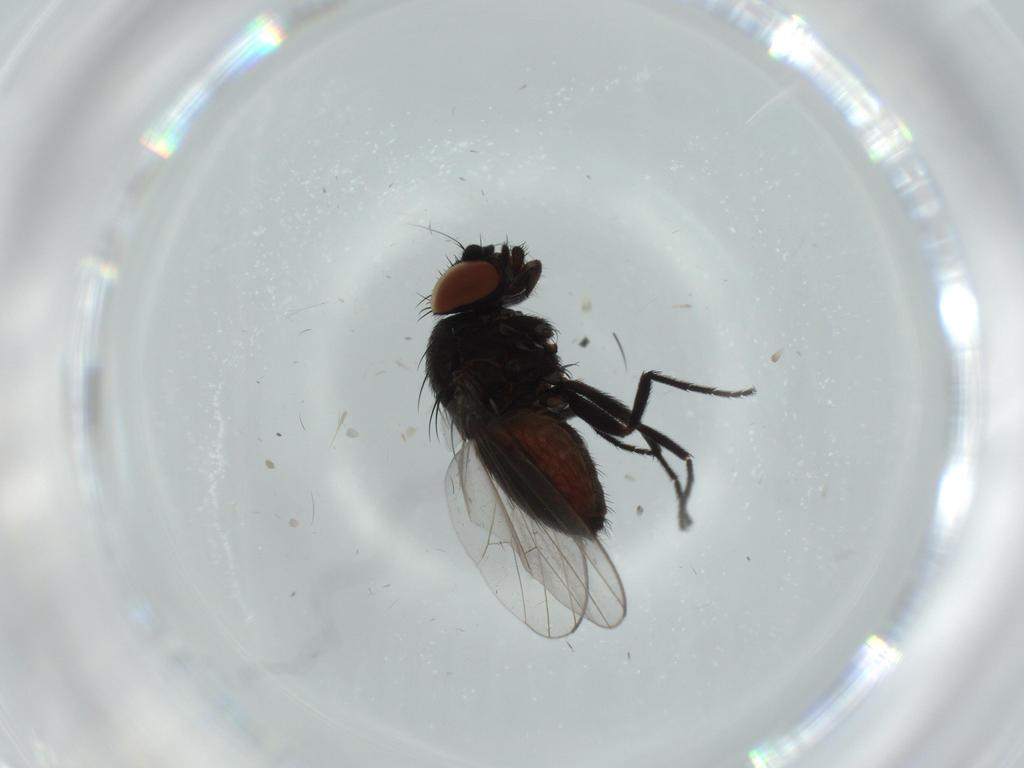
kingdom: Animalia
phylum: Arthropoda
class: Insecta
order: Diptera
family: Milichiidae
